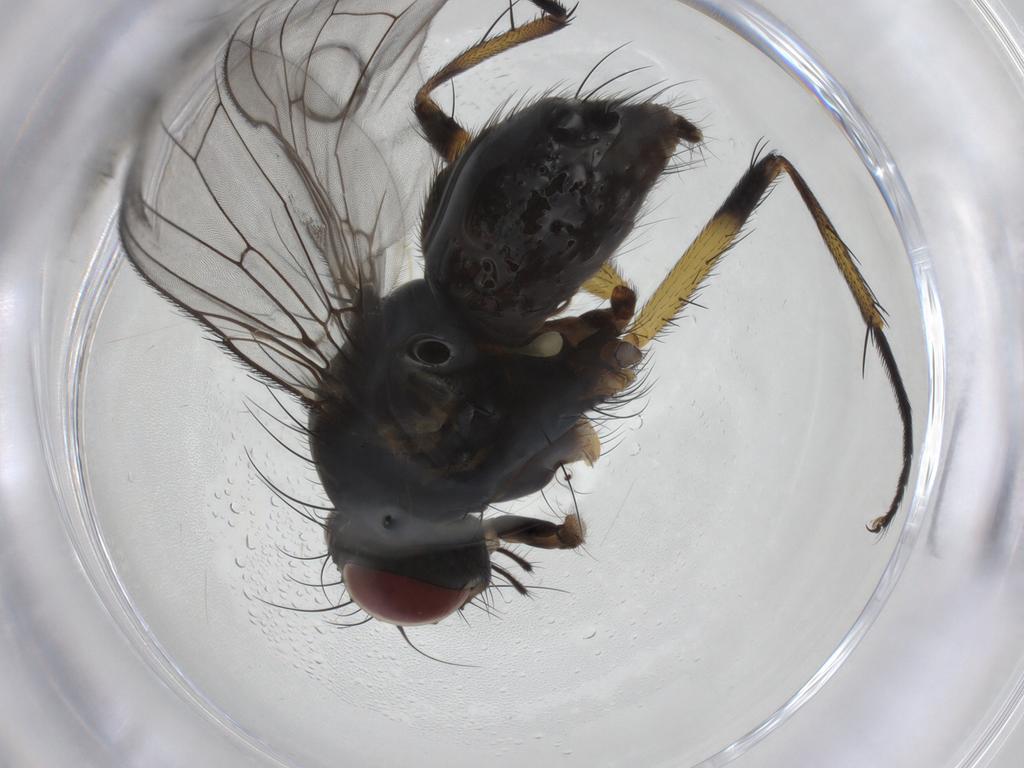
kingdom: Animalia
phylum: Arthropoda
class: Insecta
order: Diptera
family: Muscidae
